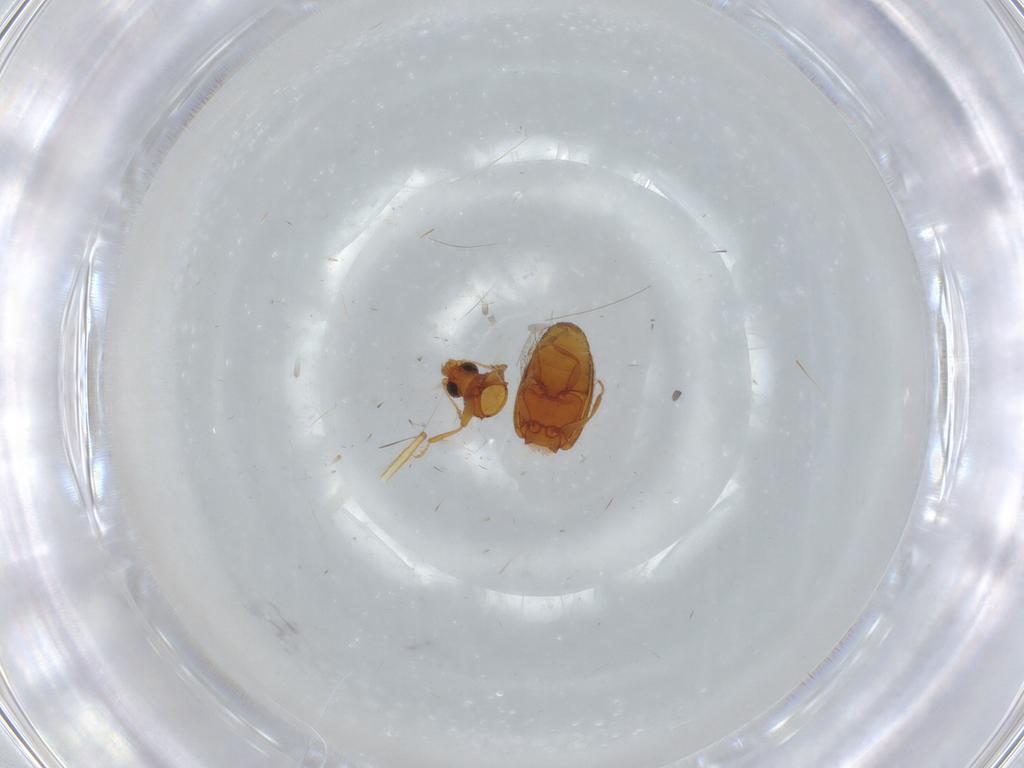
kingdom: Animalia
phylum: Arthropoda
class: Insecta
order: Coleoptera
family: Latridiidae
